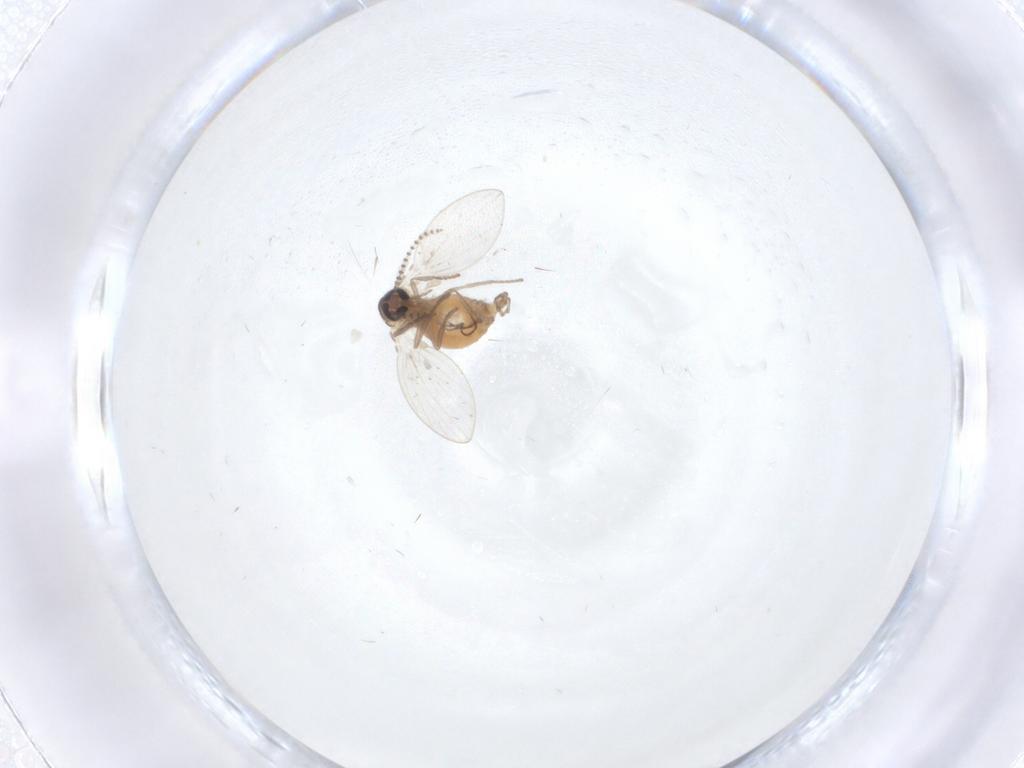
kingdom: Animalia
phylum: Arthropoda
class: Insecta
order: Diptera
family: Psychodidae
